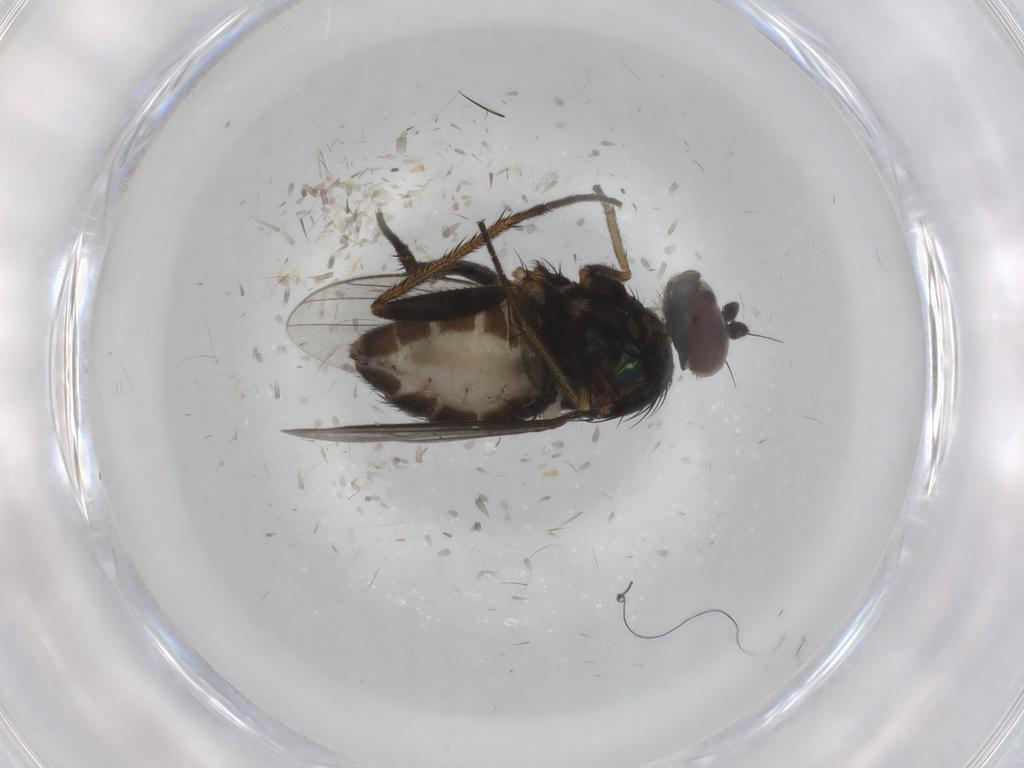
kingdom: Animalia
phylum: Arthropoda
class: Insecta
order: Diptera
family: Dolichopodidae
